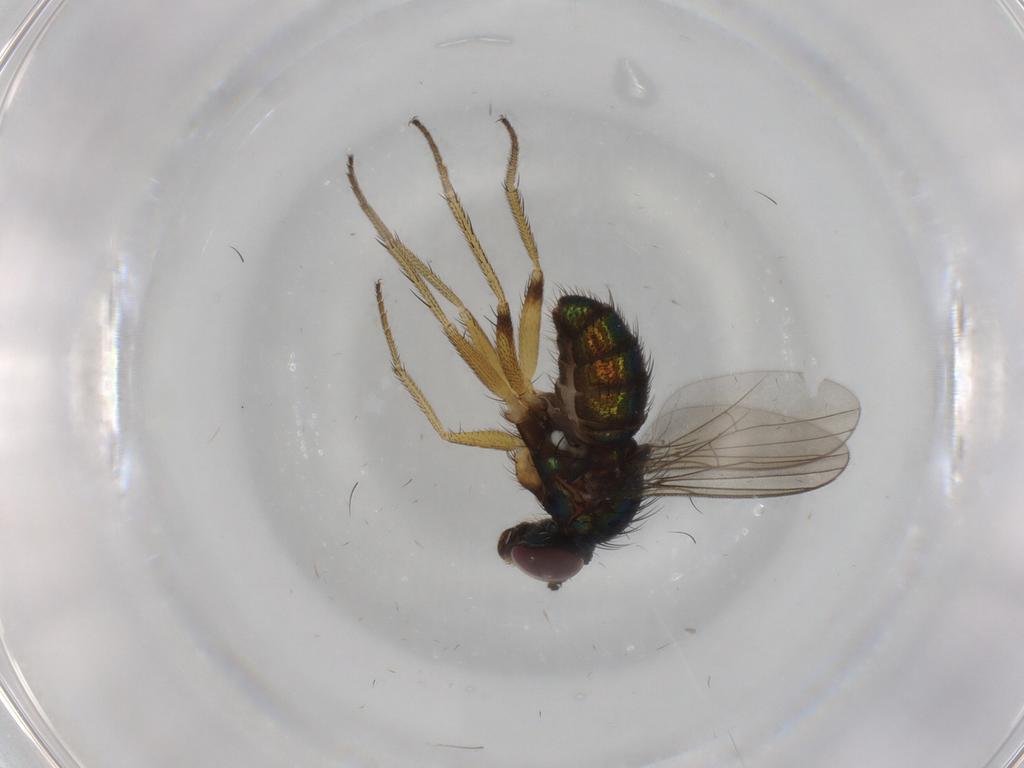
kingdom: Animalia
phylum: Arthropoda
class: Insecta
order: Diptera
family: Dolichopodidae
